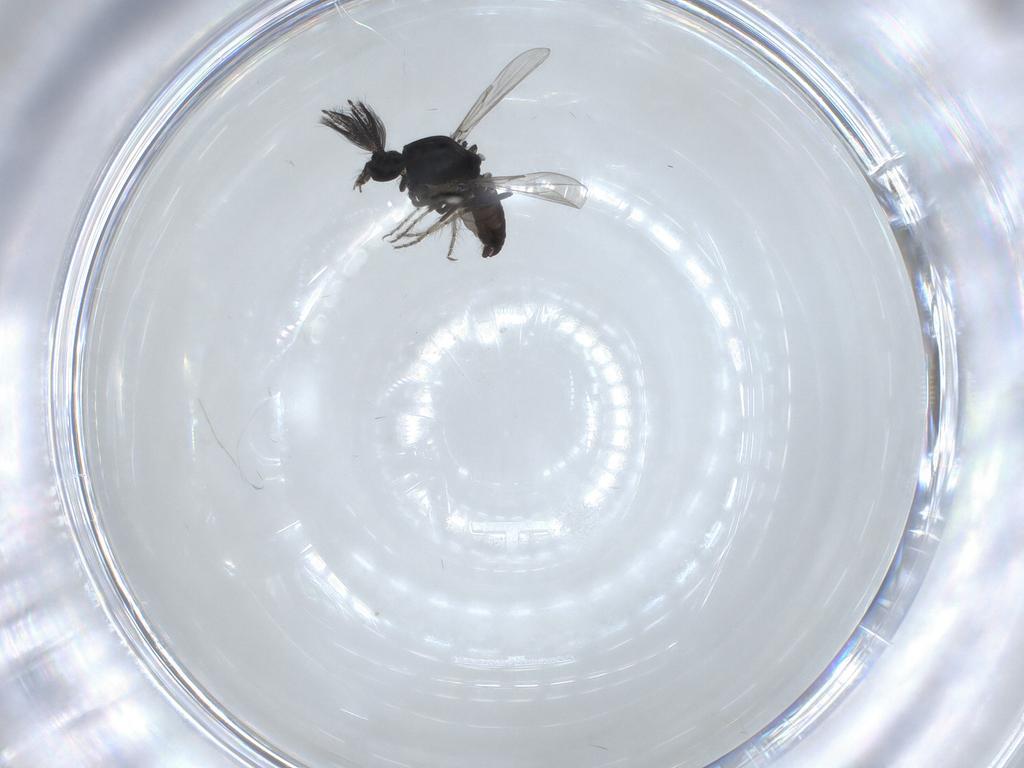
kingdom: Animalia
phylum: Arthropoda
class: Insecta
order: Diptera
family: Ceratopogonidae
